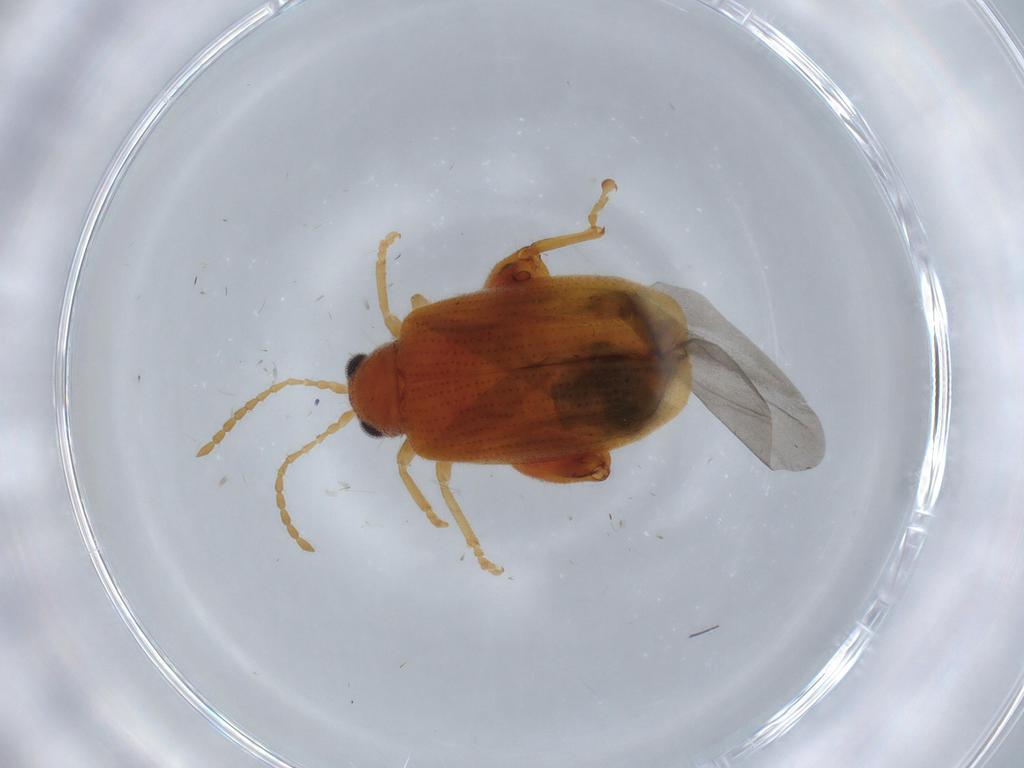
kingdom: Animalia
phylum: Arthropoda
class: Insecta
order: Coleoptera
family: Chrysomelidae
